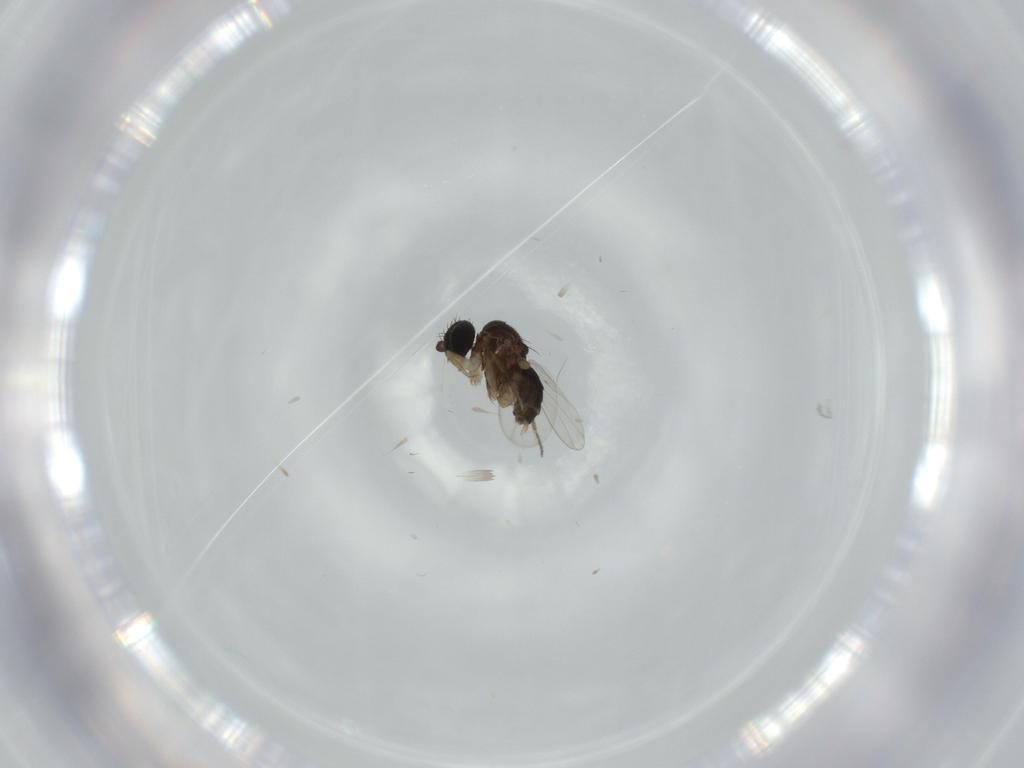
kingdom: Animalia
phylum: Arthropoda
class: Insecta
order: Diptera
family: Phoridae
